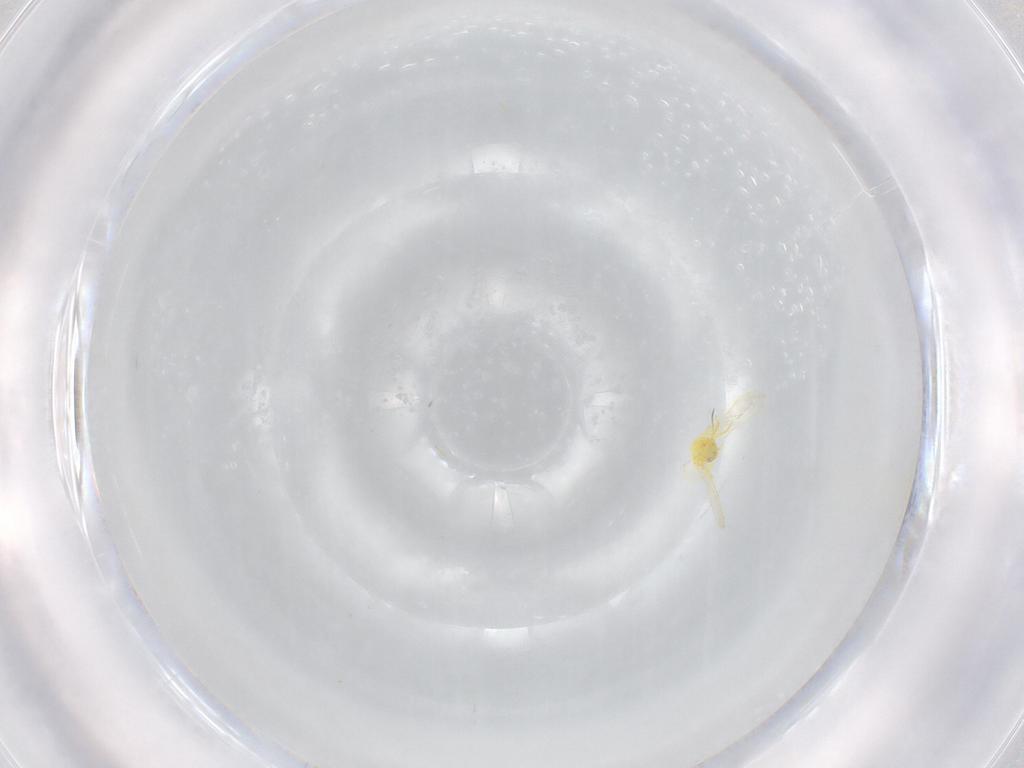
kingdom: Animalia
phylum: Arthropoda
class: Insecta
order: Hemiptera
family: Aleyrodidae
